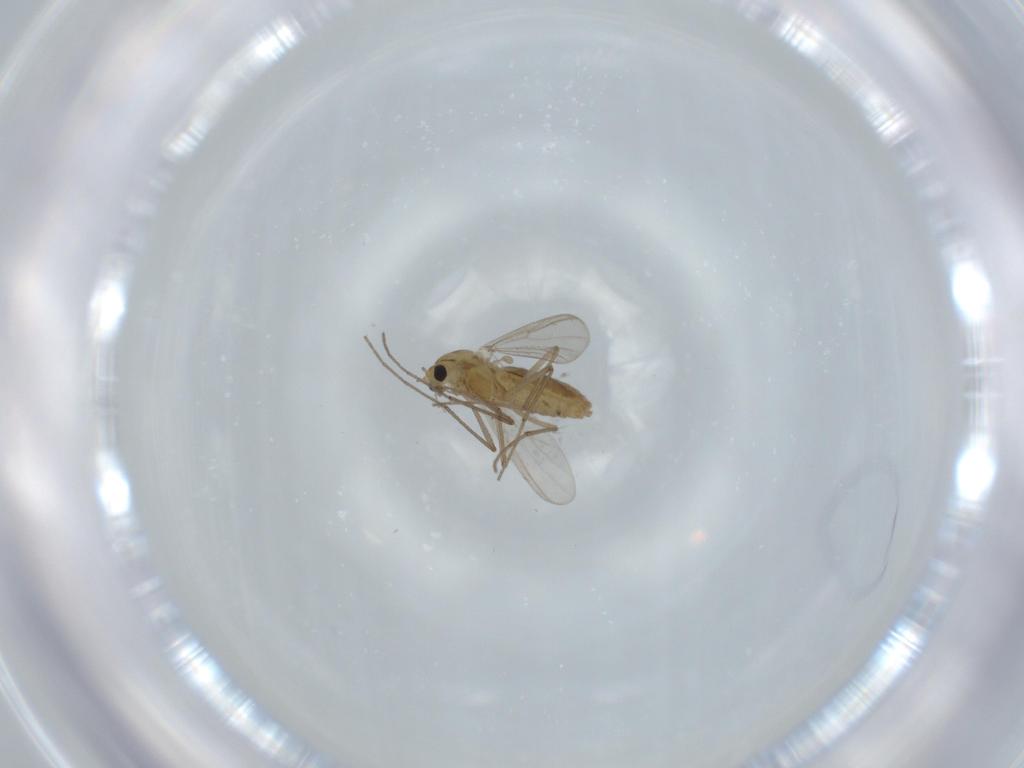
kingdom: Animalia
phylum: Arthropoda
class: Insecta
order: Diptera
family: Chironomidae
